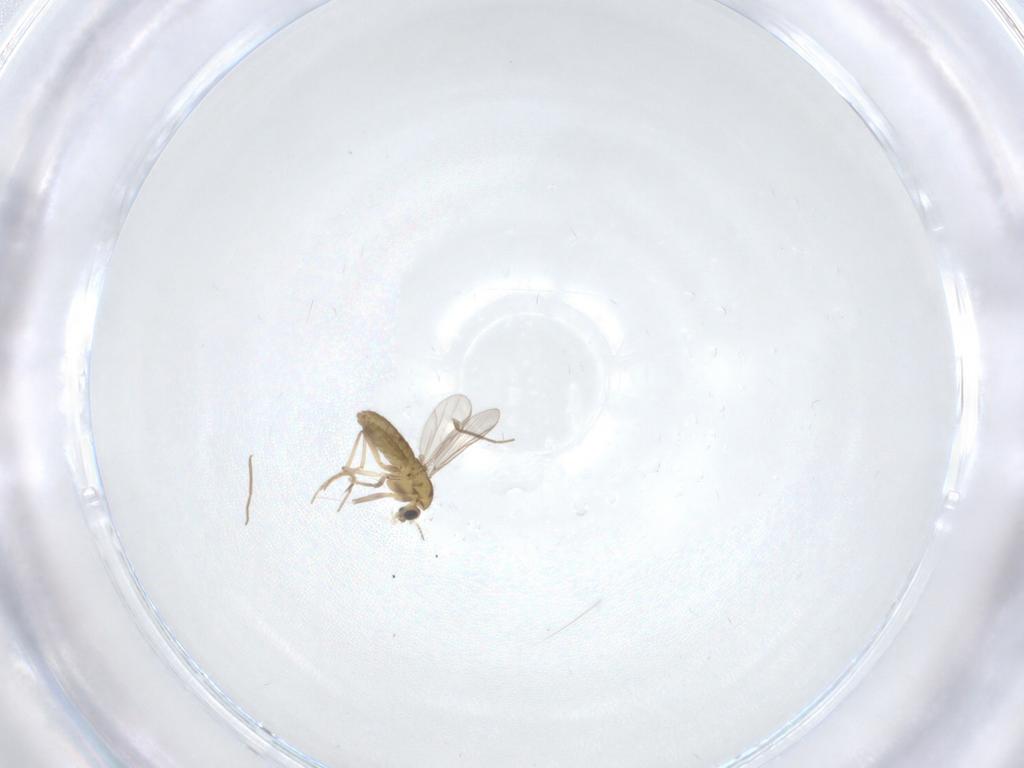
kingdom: Animalia
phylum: Arthropoda
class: Insecta
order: Diptera
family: Chironomidae
